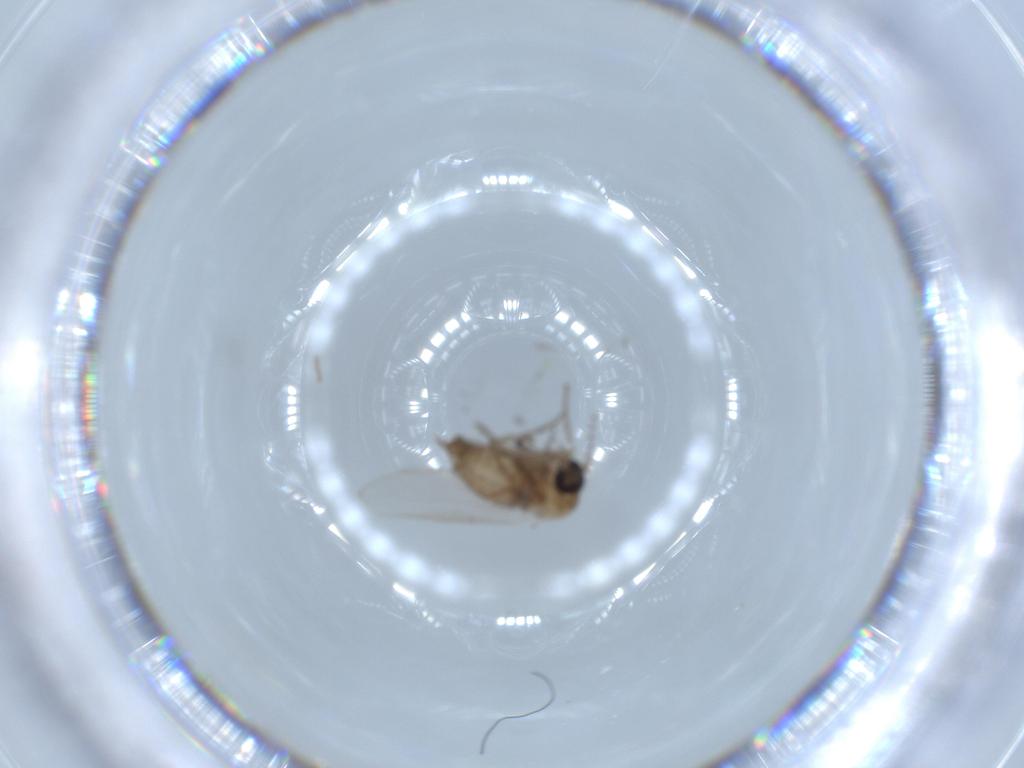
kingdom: Animalia
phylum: Arthropoda
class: Insecta
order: Diptera
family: Psychodidae
